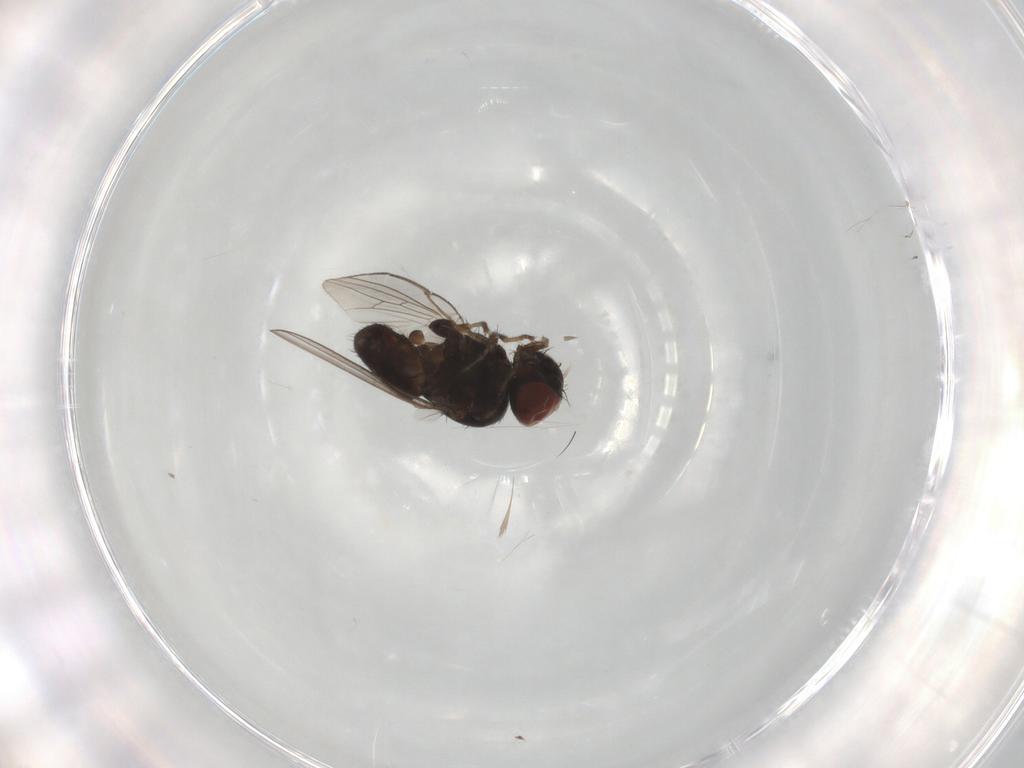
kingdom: Animalia
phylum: Arthropoda
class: Insecta
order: Diptera
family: Milichiidae
